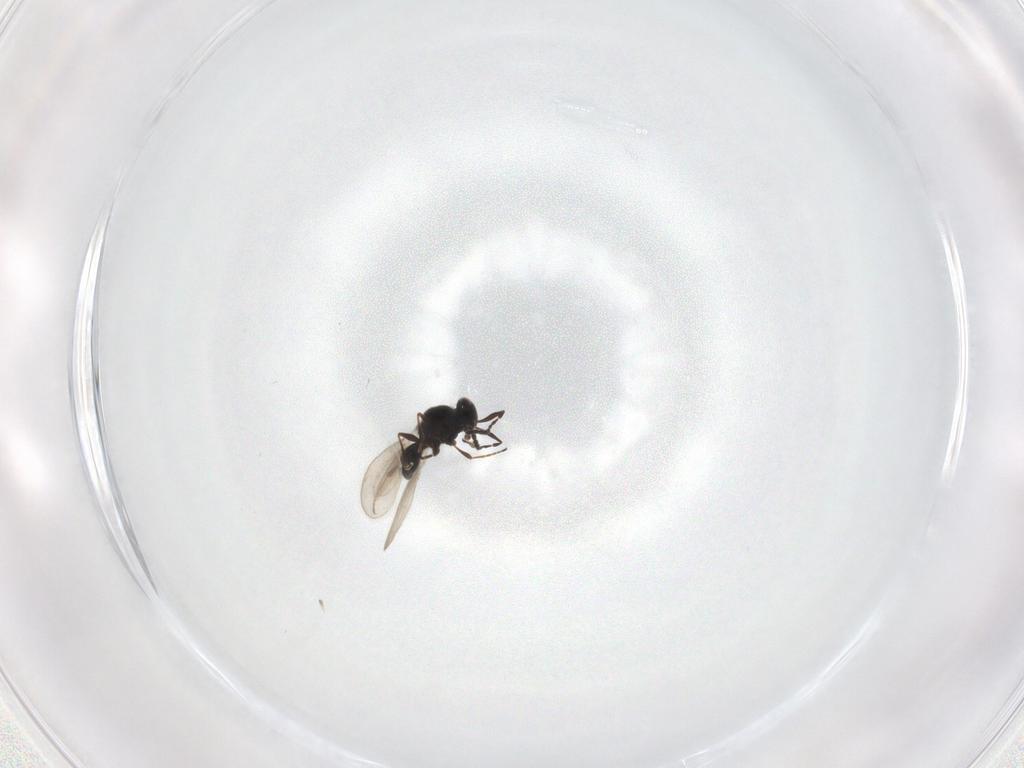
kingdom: Animalia
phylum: Arthropoda
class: Insecta
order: Hymenoptera
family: Platygastridae
